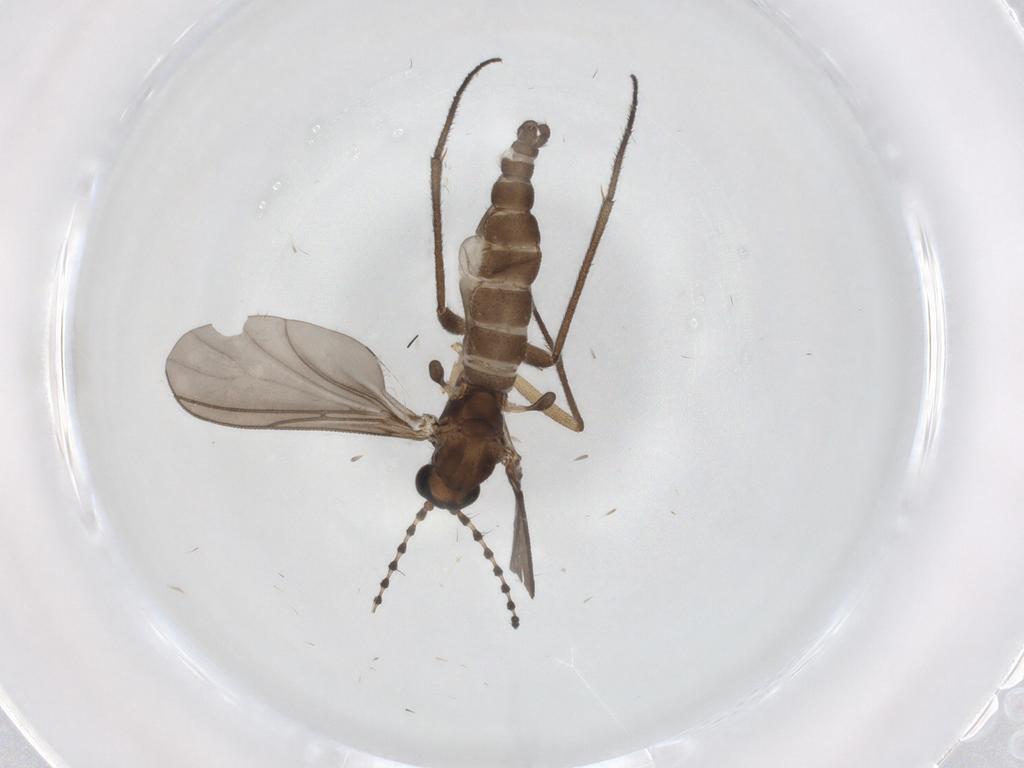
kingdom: Animalia
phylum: Arthropoda
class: Insecta
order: Diptera
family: Sciaridae
